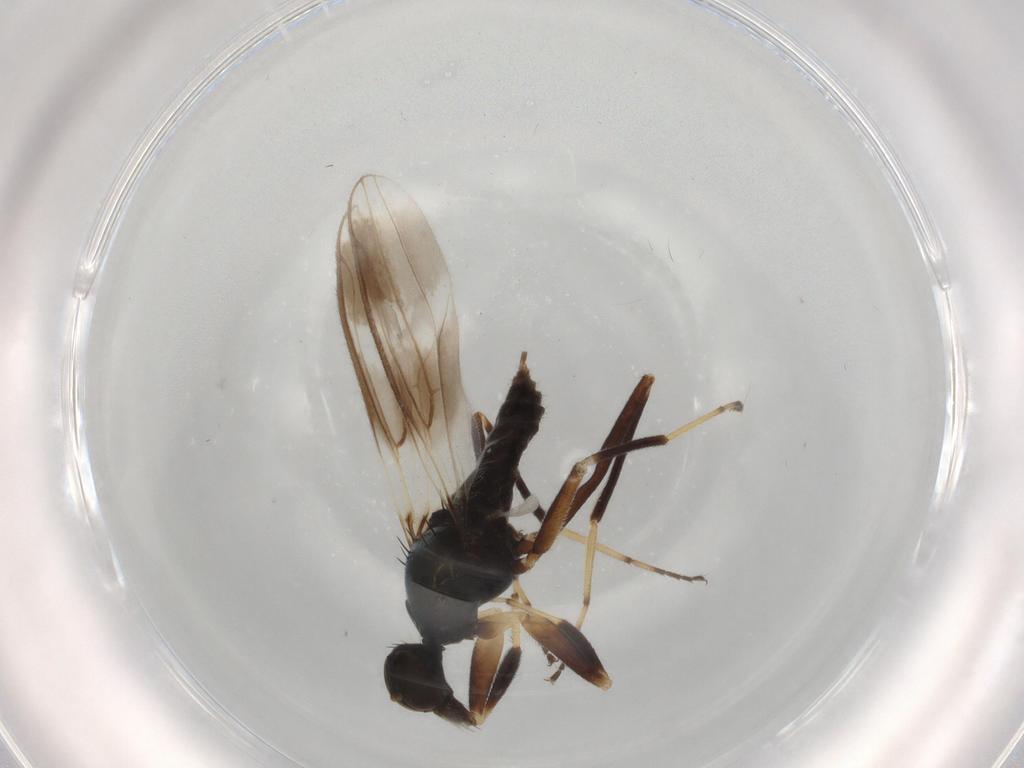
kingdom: Animalia
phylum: Arthropoda
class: Insecta
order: Diptera
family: Hybotidae
